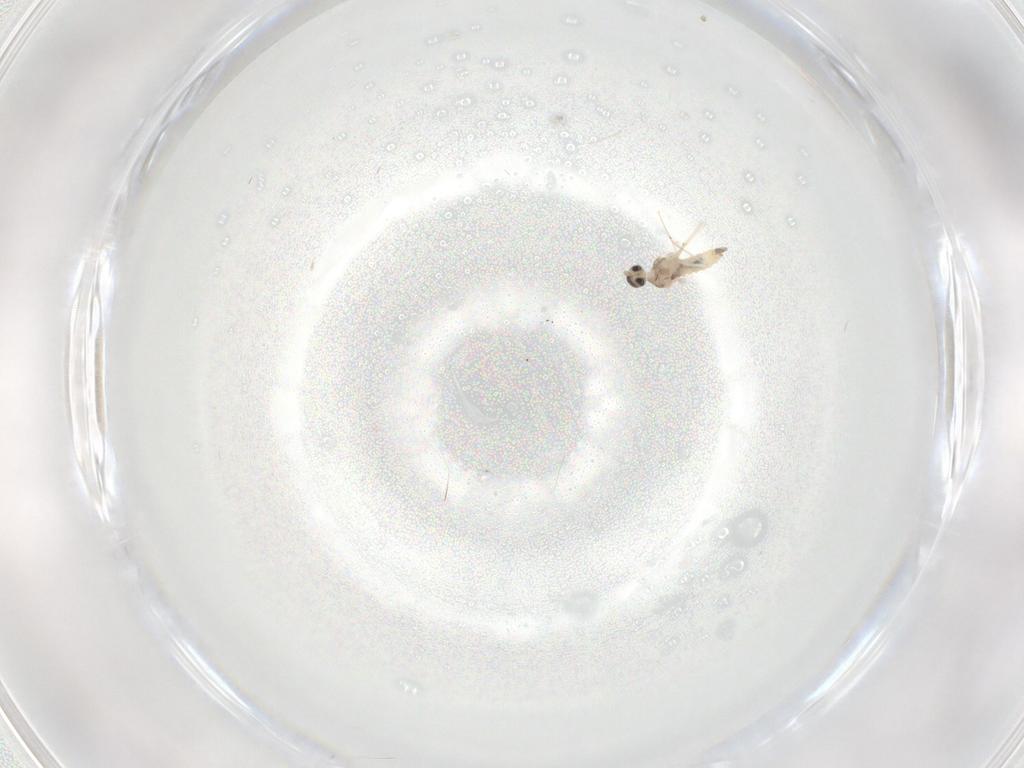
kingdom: Animalia
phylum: Arthropoda
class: Insecta
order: Diptera
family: Cecidomyiidae
